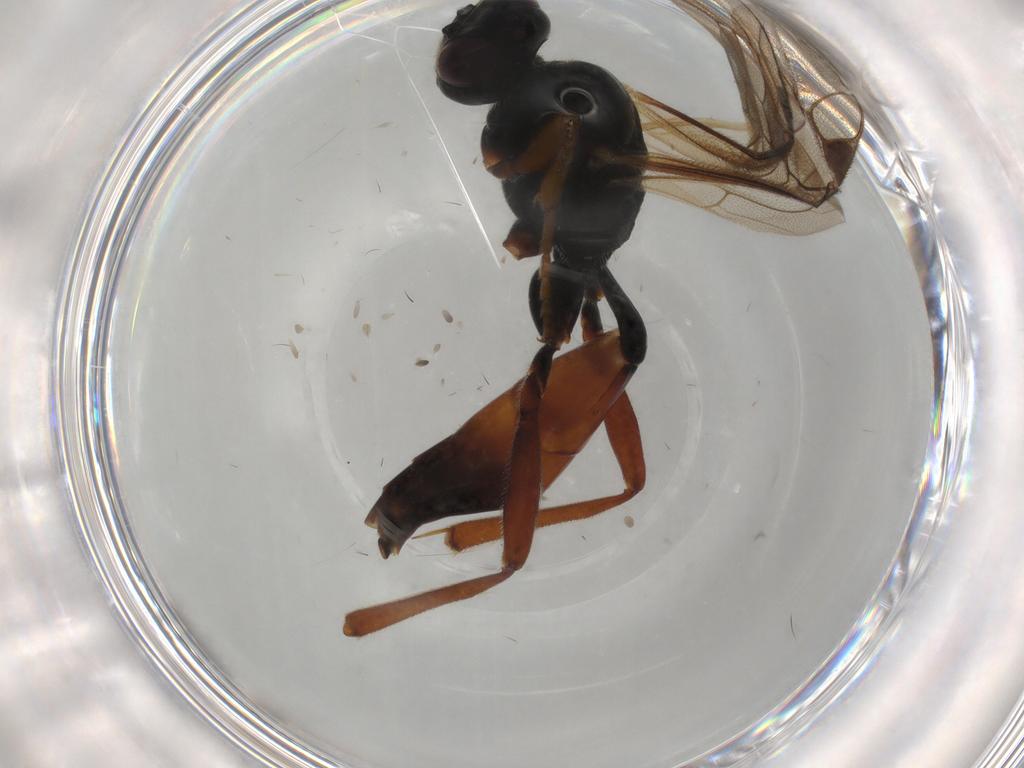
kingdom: Animalia
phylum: Arthropoda
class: Insecta
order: Hymenoptera
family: Ichneumonidae
